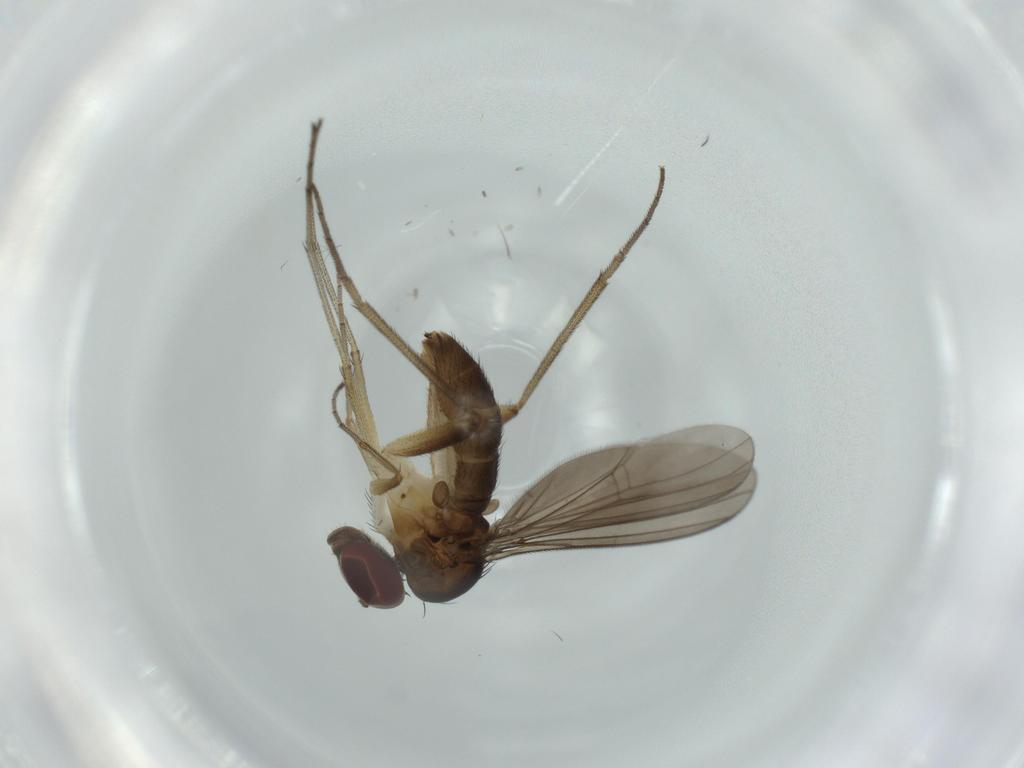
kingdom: Animalia
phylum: Arthropoda
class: Insecta
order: Diptera
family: Dolichopodidae
